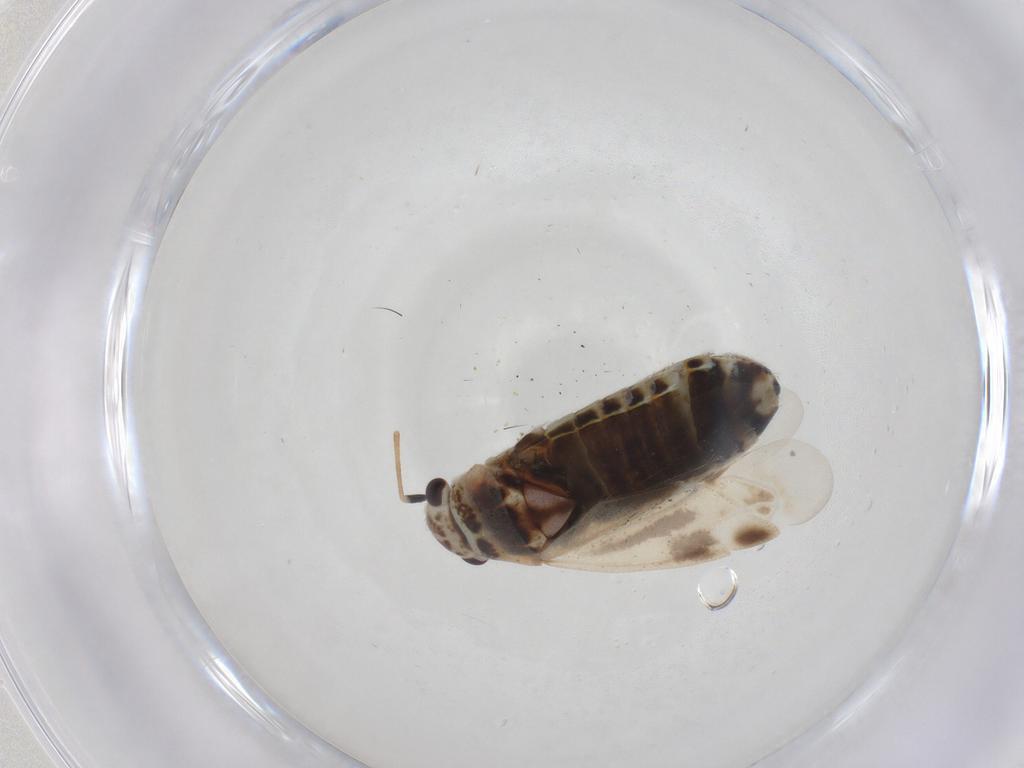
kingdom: Animalia
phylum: Arthropoda
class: Insecta
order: Hemiptera
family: Miridae
